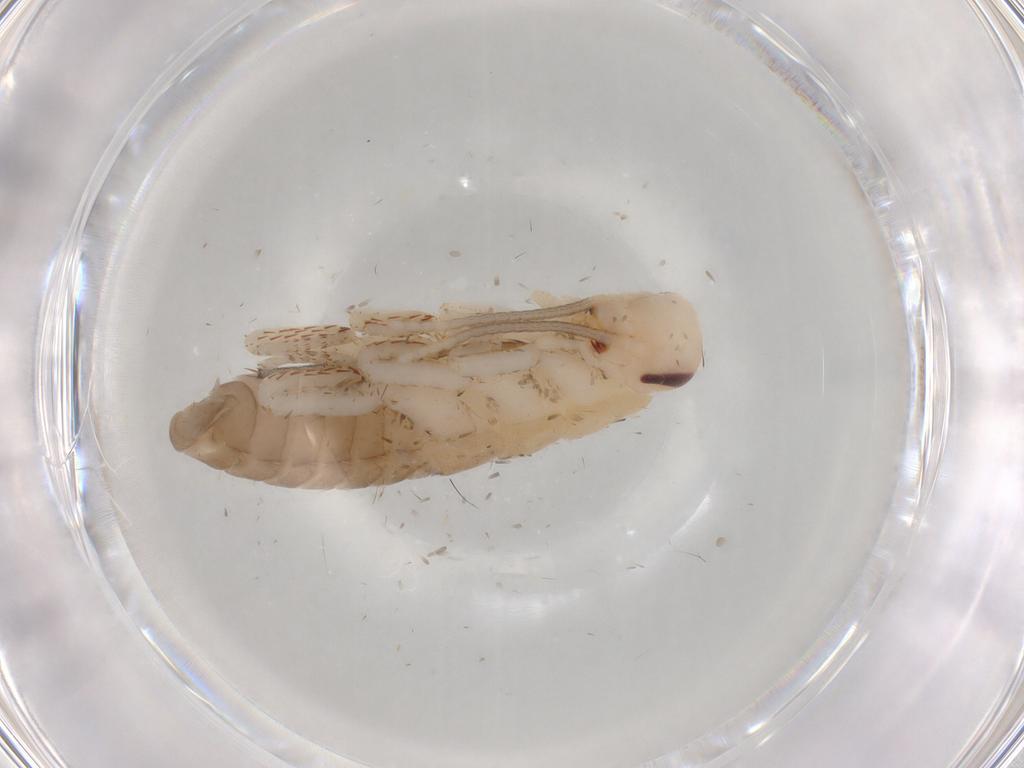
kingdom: Animalia
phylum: Arthropoda
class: Insecta
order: Blattodea
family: Blaberidae
